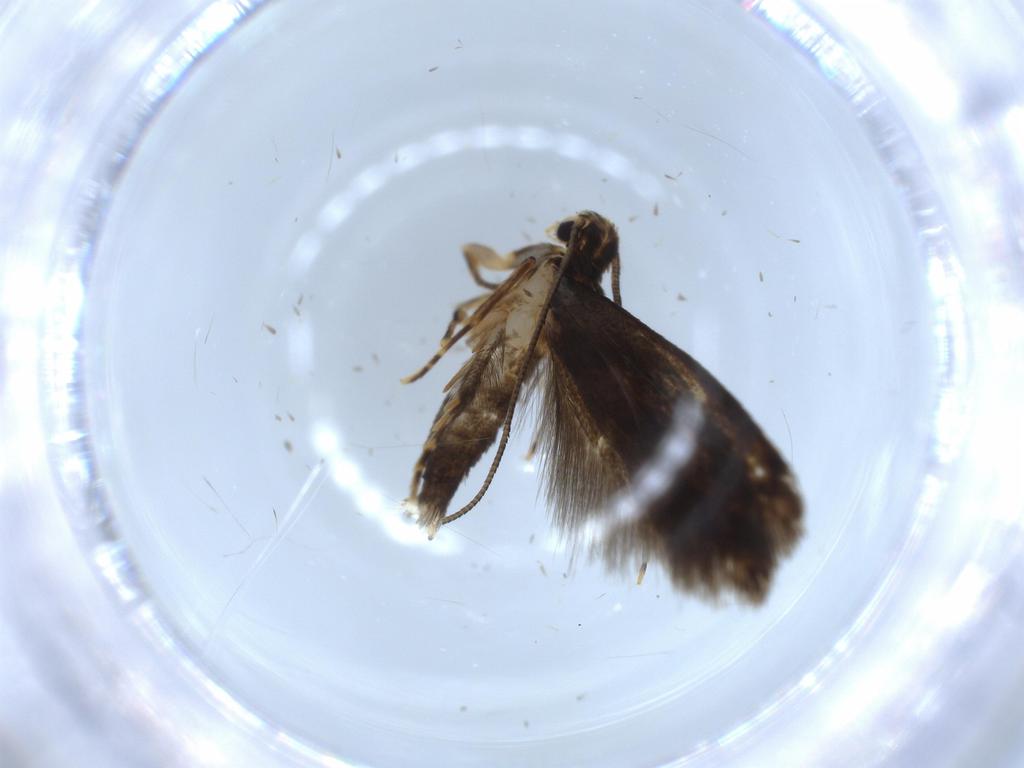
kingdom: Animalia
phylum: Arthropoda
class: Insecta
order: Lepidoptera
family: Tineidae
